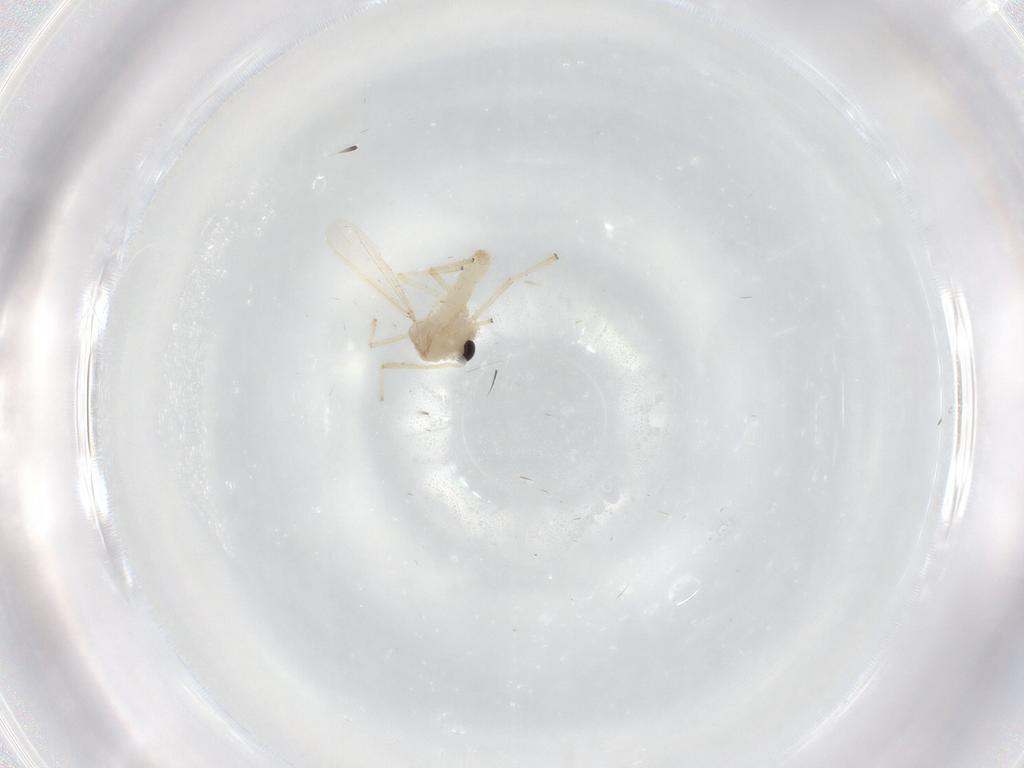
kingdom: Animalia
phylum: Arthropoda
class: Insecta
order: Diptera
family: Chironomidae
